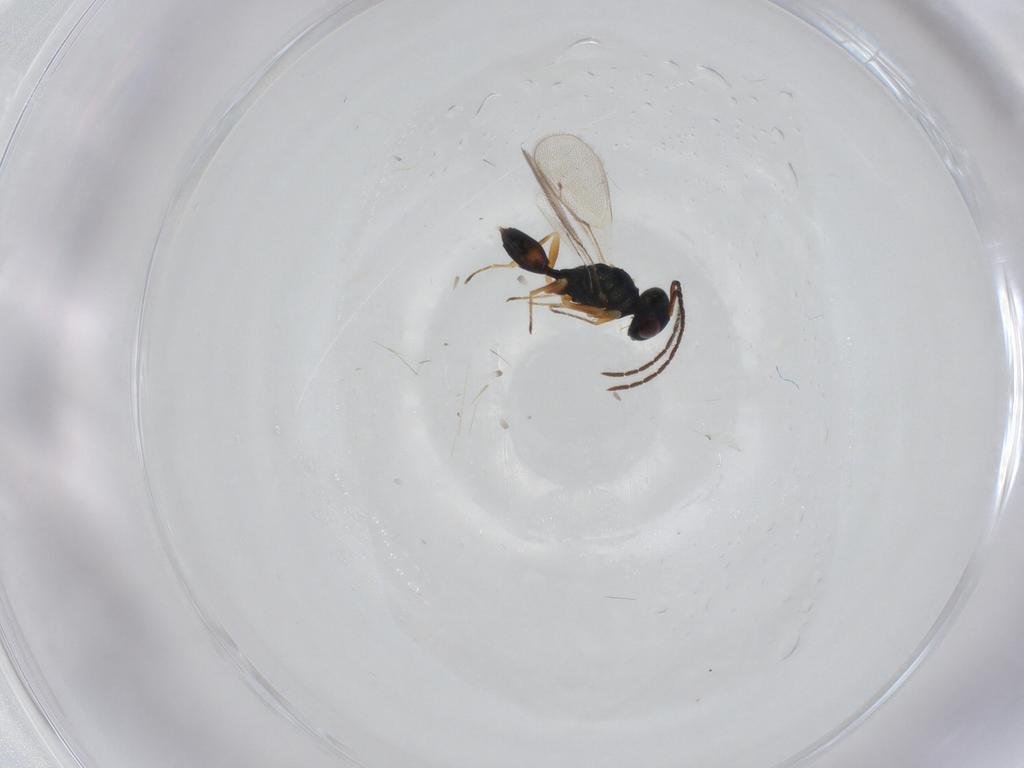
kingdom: Animalia
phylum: Arthropoda
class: Insecta
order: Hymenoptera
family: Pteromalidae
